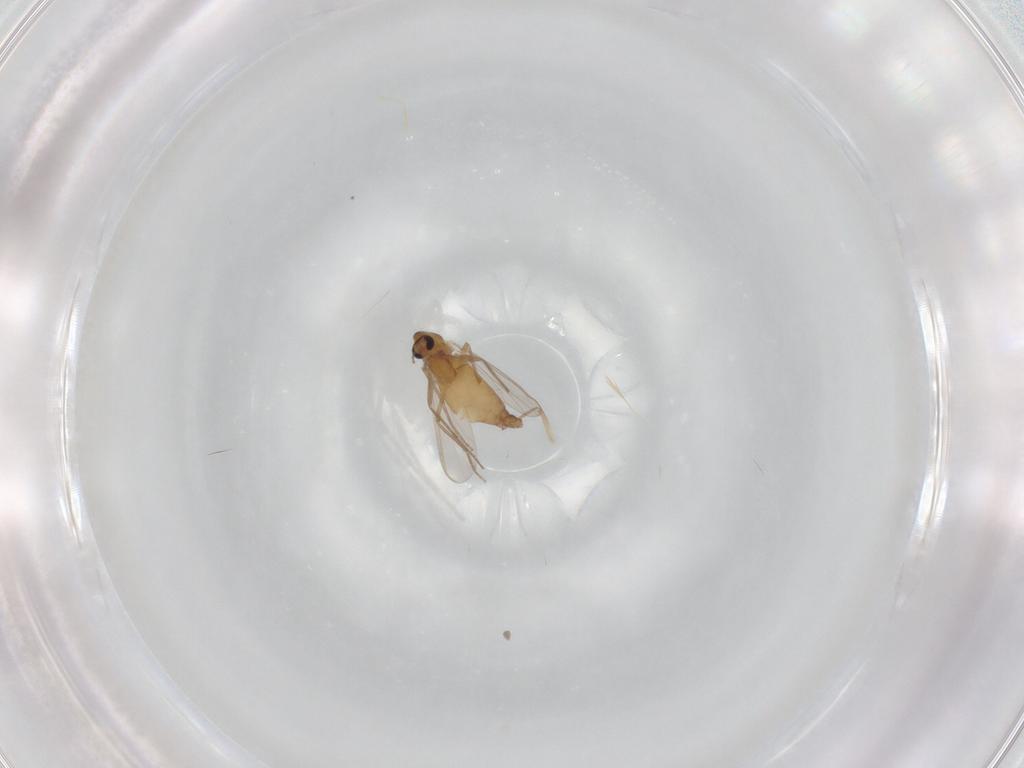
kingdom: Animalia
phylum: Arthropoda
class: Insecta
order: Diptera
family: Chironomidae
